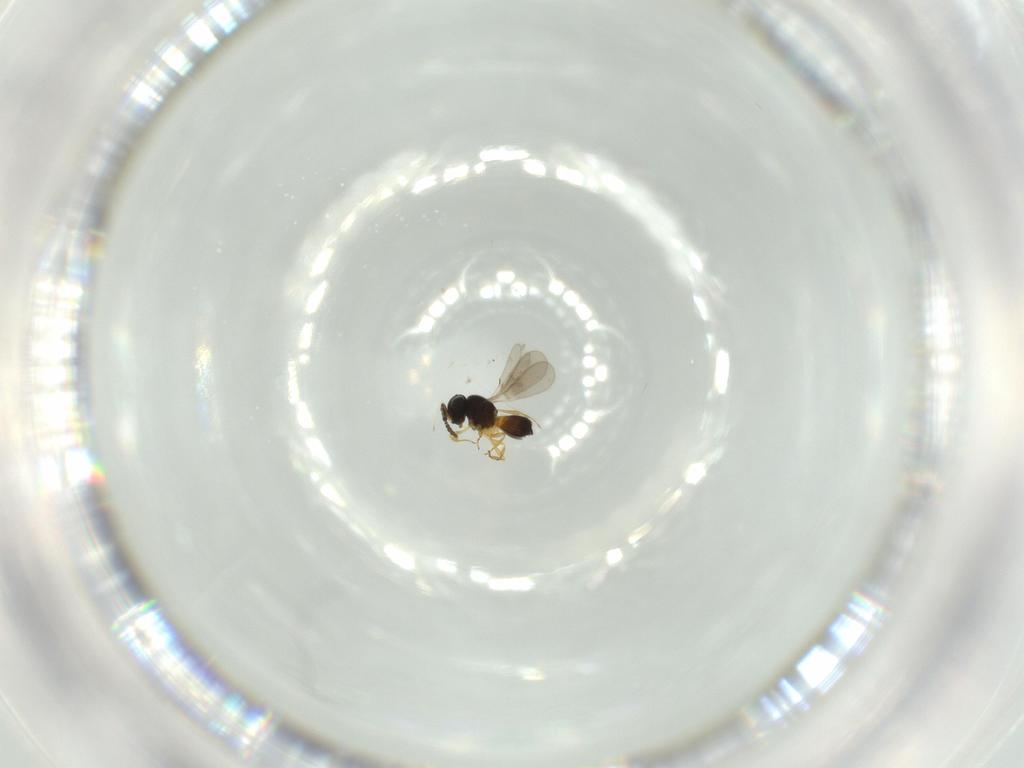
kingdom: Animalia
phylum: Arthropoda
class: Insecta
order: Hymenoptera
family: Scelionidae
